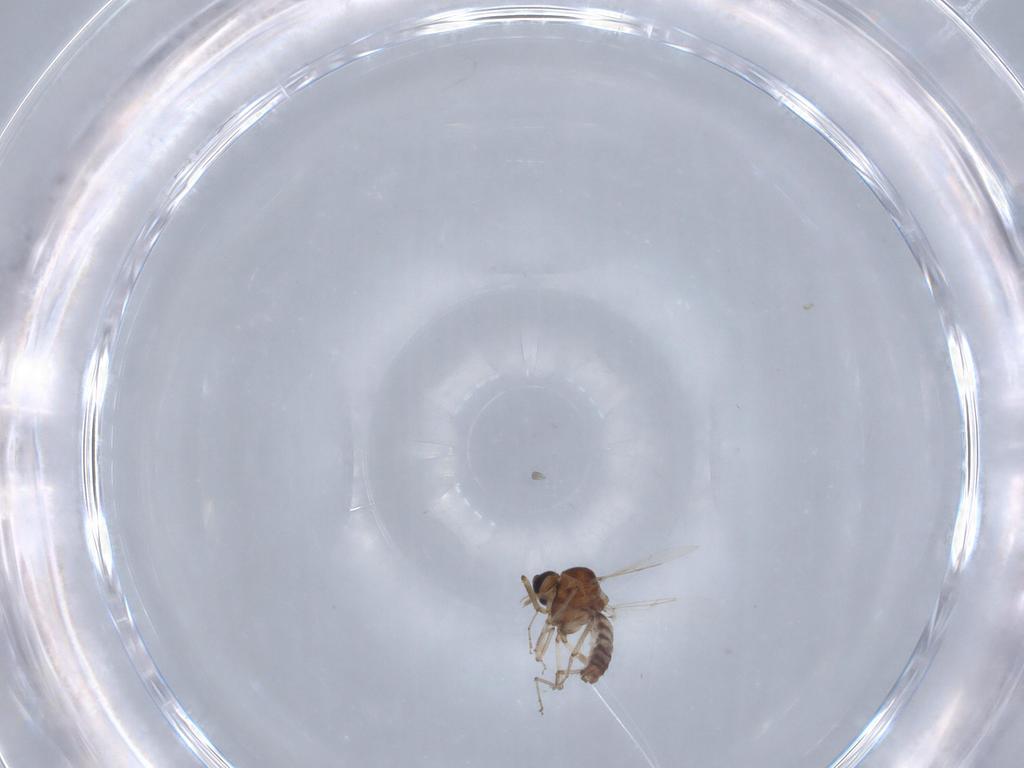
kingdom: Animalia
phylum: Arthropoda
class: Insecta
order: Diptera
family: Ceratopogonidae
